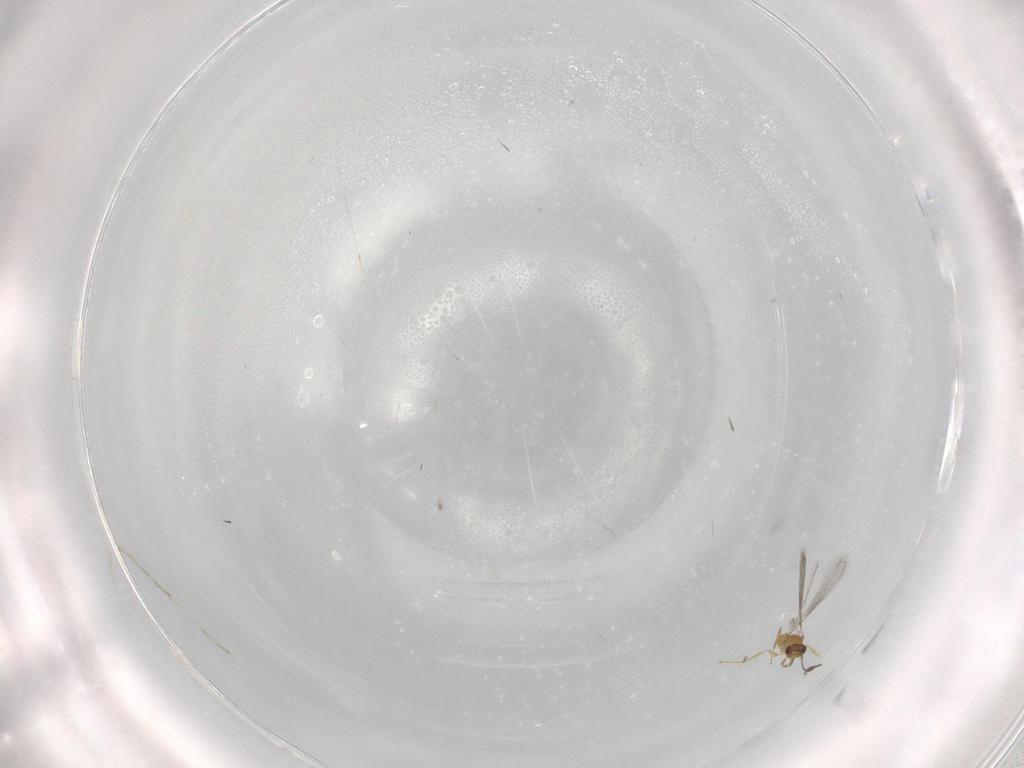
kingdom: Animalia
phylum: Arthropoda
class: Insecta
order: Hymenoptera
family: Mymaridae
